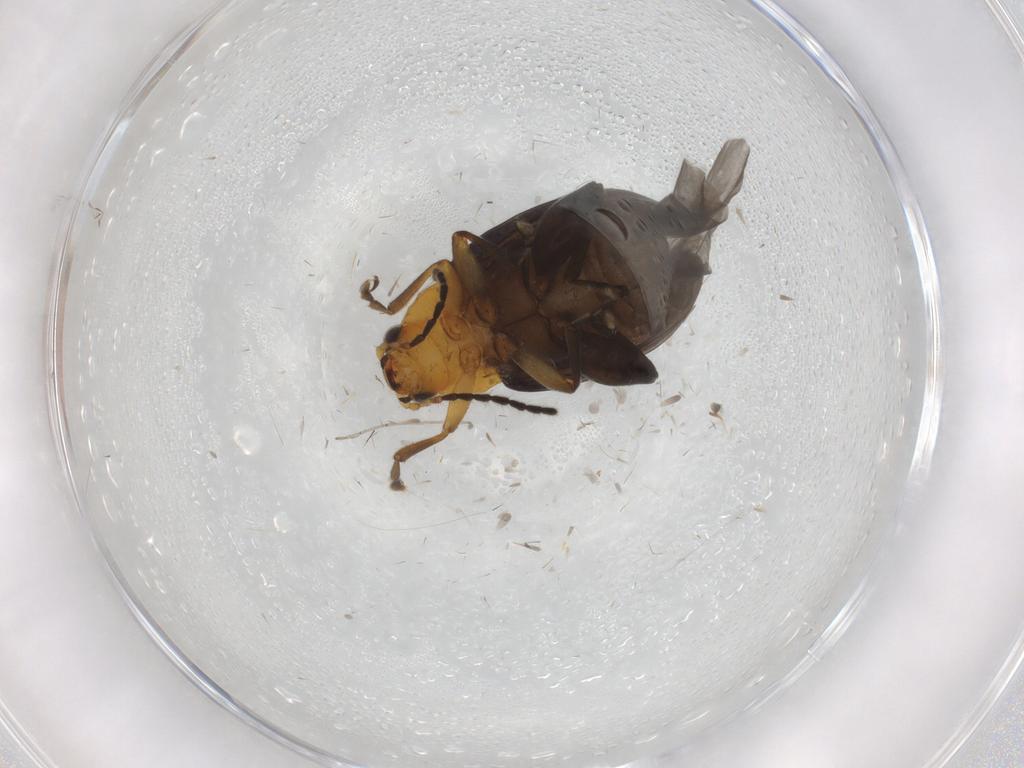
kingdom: Animalia
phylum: Arthropoda
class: Insecta
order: Coleoptera
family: Chrysomelidae
